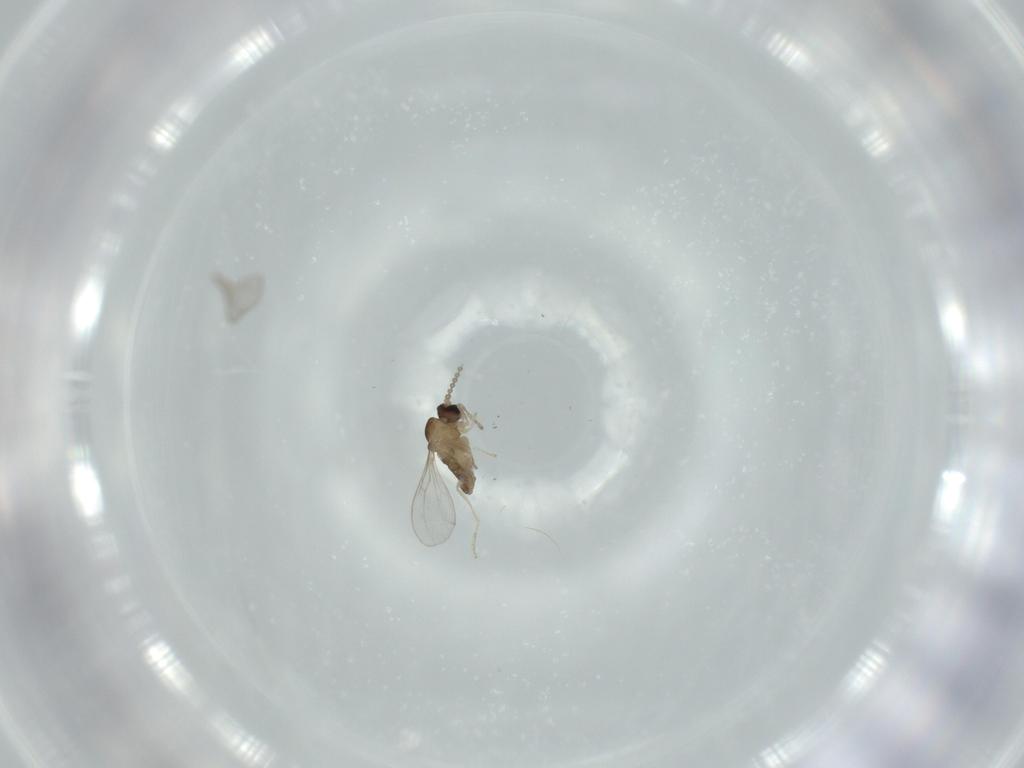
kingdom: Animalia
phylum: Arthropoda
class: Insecta
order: Diptera
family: Cecidomyiidae
